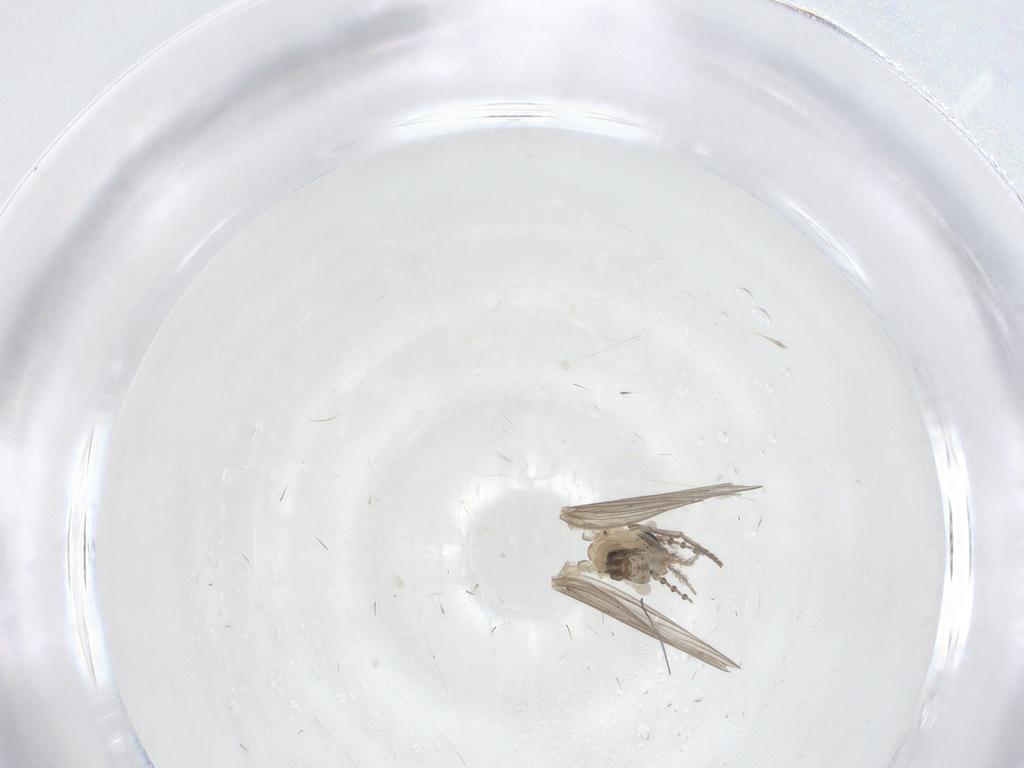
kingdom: Animalia
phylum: Arthropoda
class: Insecta
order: Diptera
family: Psychodidae
